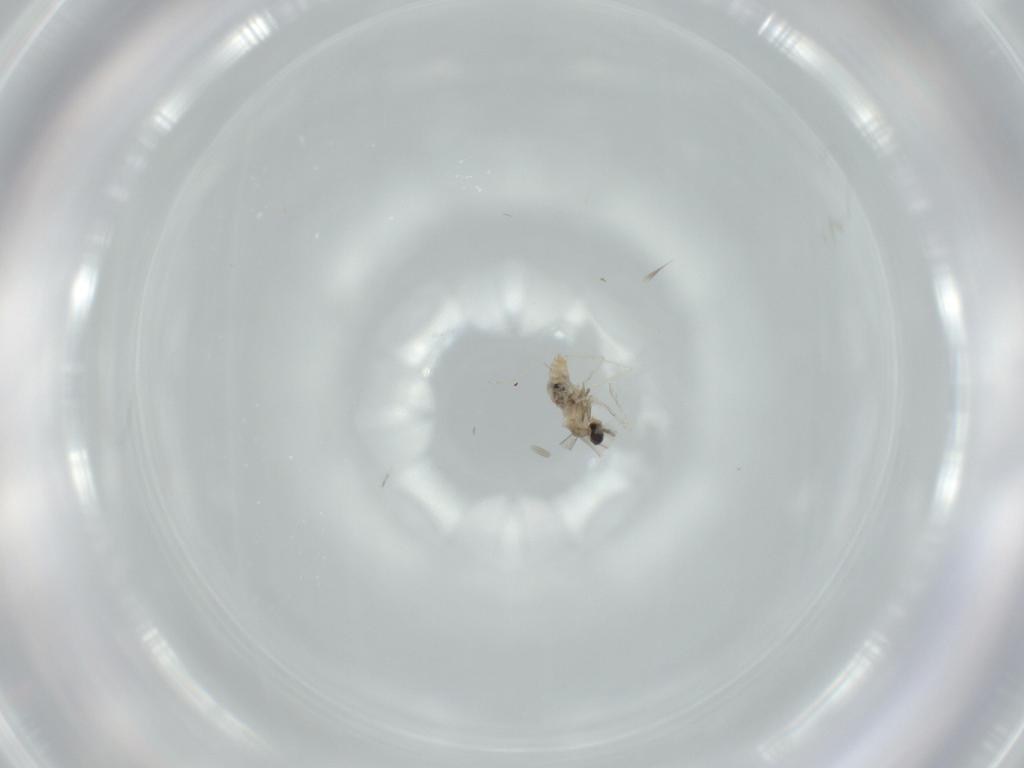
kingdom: Animalia
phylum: Arthropoda
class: Insecta
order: Diptera
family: Cecidomyiidae
